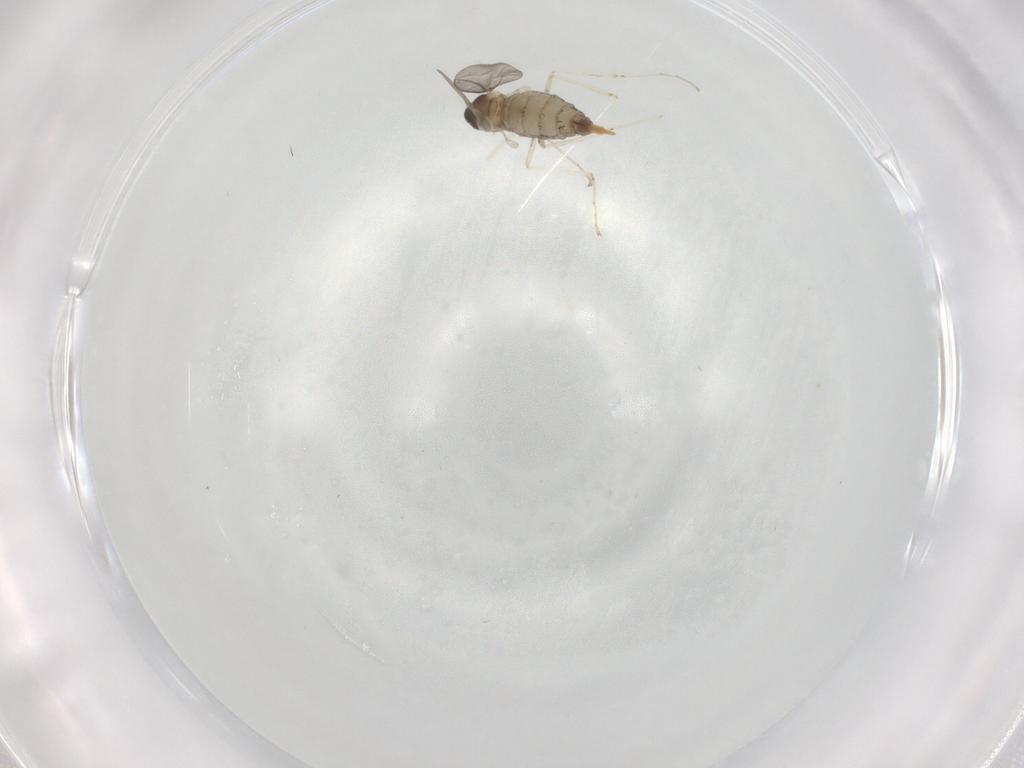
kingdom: Animalia
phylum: Arthropoda
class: Insecta
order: Diptera
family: Cecidomyiidae
